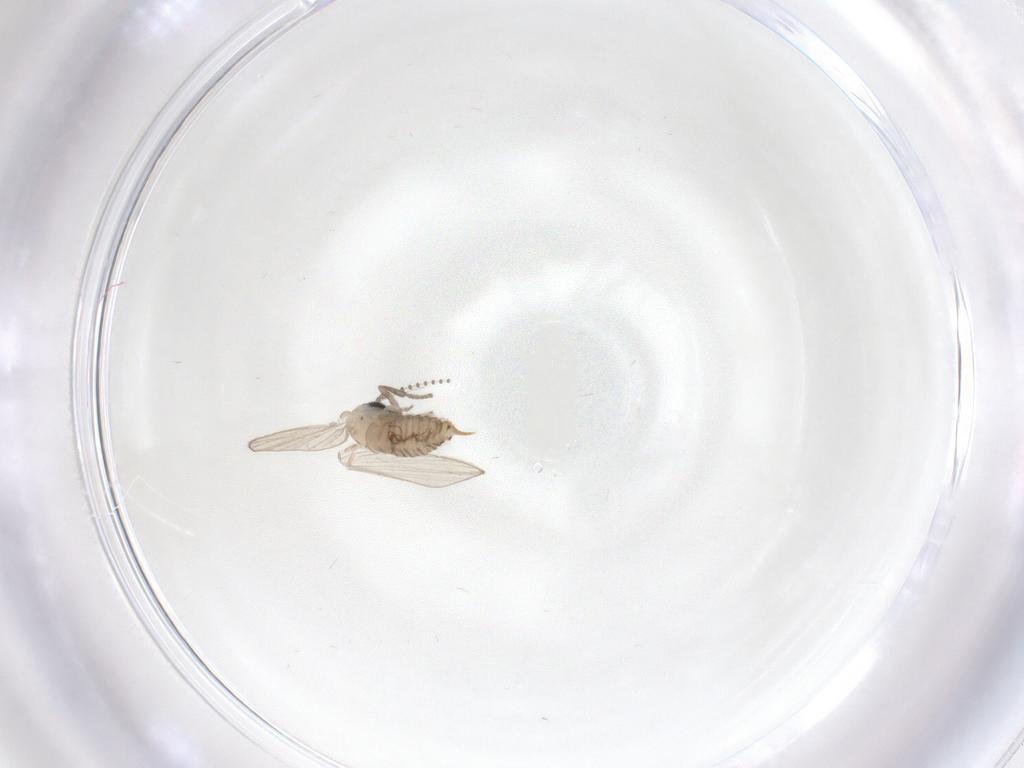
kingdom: Animalia
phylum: Arthropoda
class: Insecta
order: Diptera
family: Psychodidae
